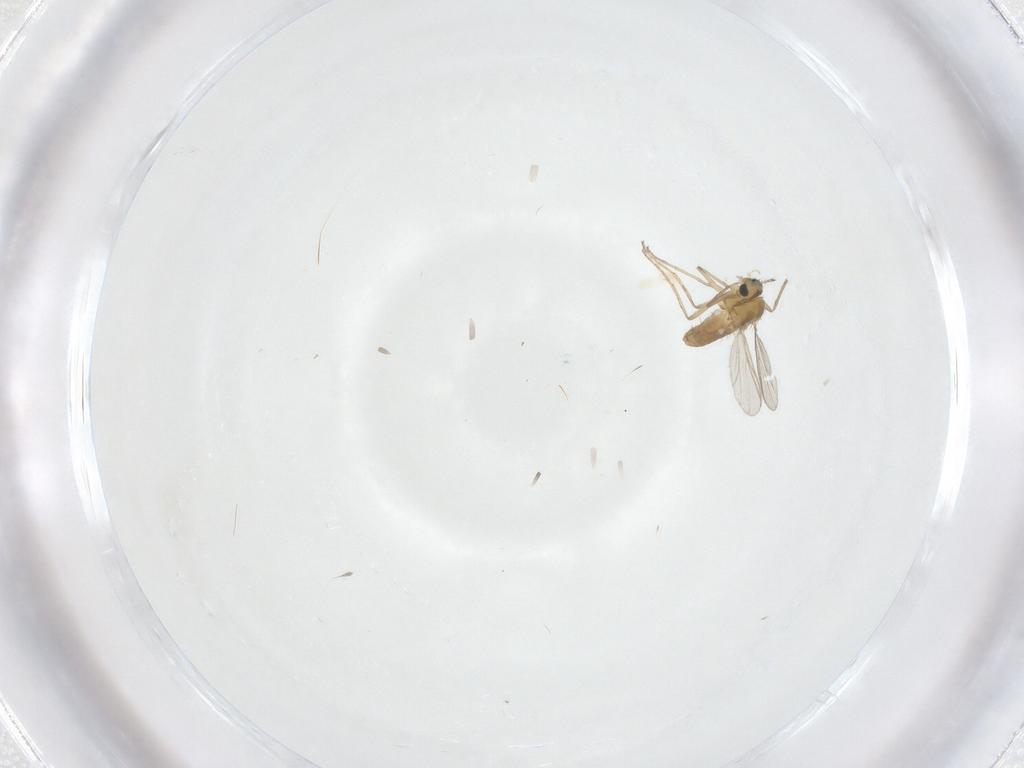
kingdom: Animalia
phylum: Arthropoda
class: Insecta
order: Diptera
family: Chironomidae
